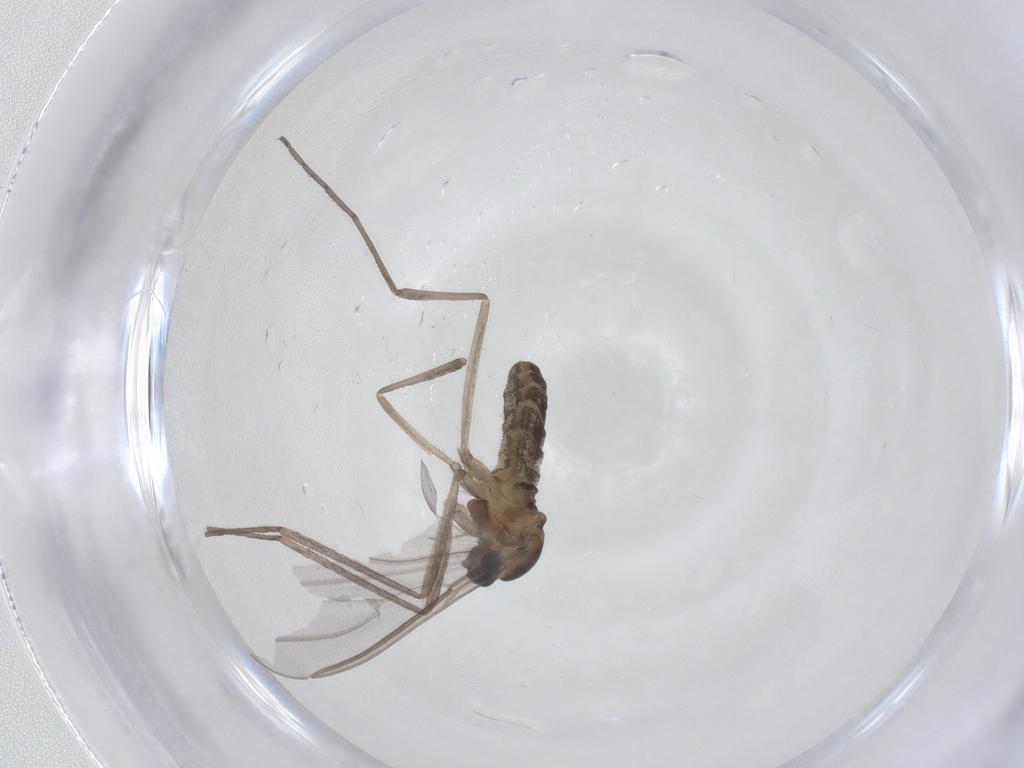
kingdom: Animalia
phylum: Arthropoda
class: Insecta
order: Diptera
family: Cecidomyiidae
